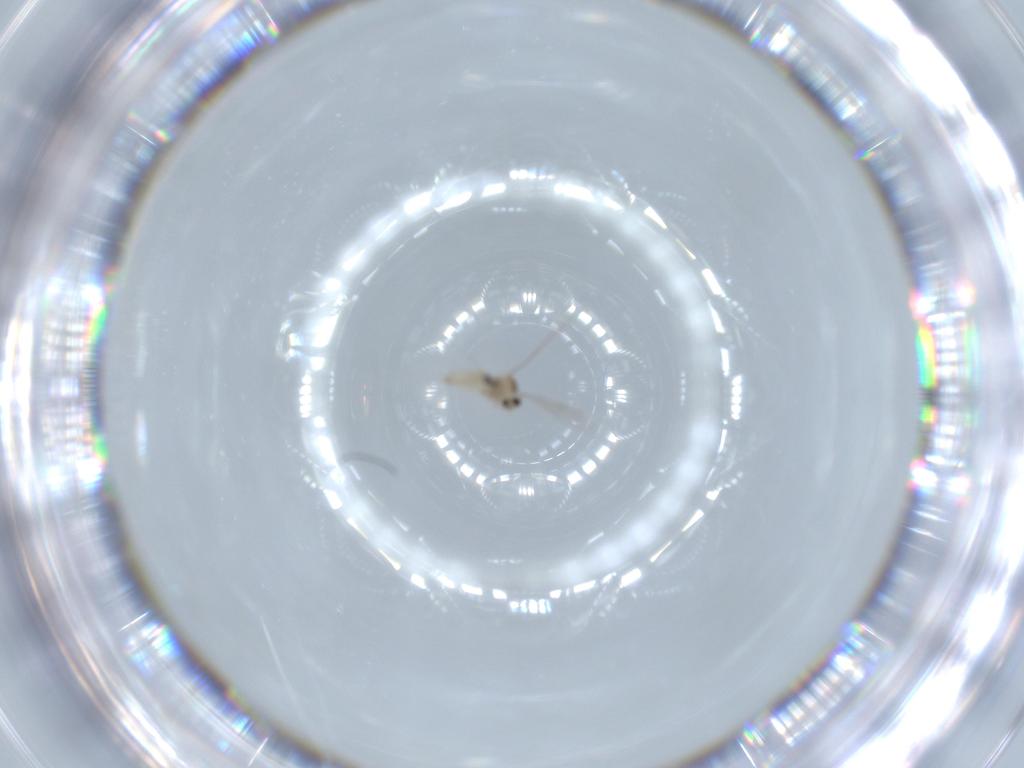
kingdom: Animalia
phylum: Arthropoda
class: Insecta
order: Diptera
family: Cecidomyiidae
